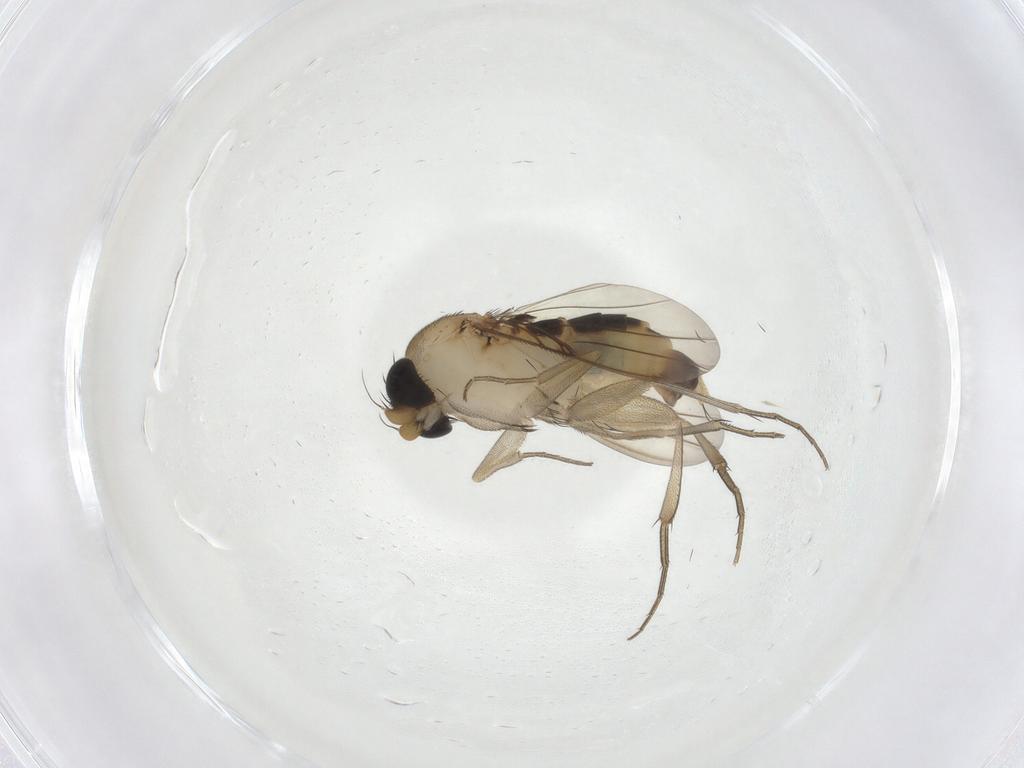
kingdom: Animalia
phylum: Arthropoda
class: Insecta
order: Diptera
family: Phoridae
